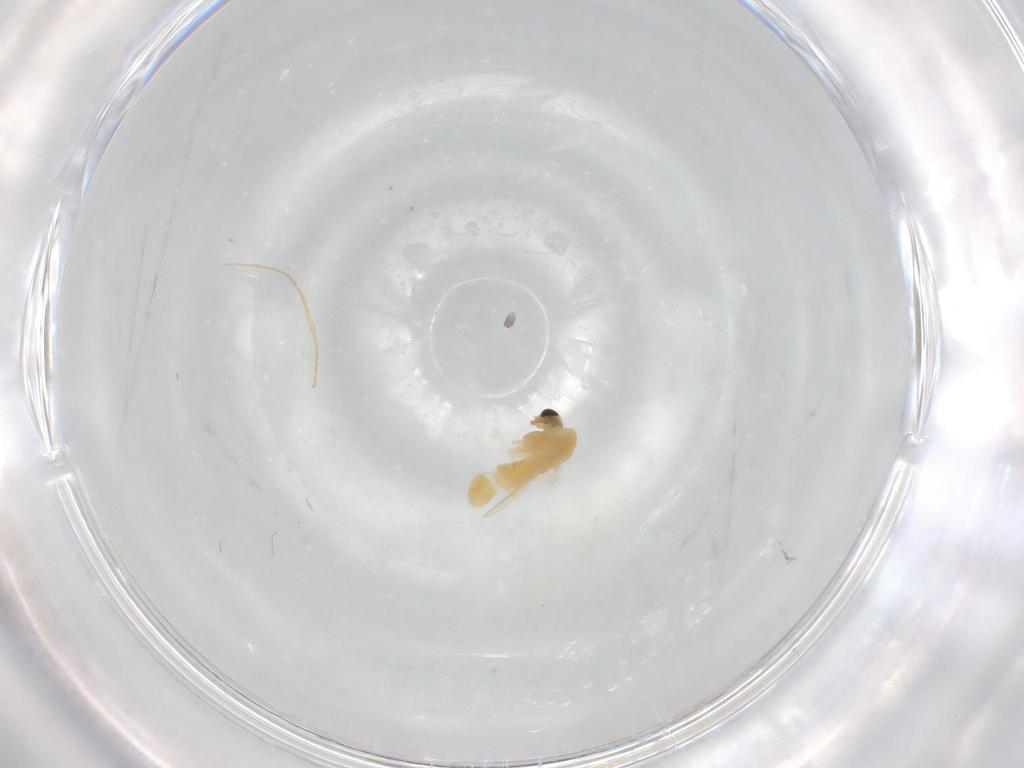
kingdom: Animalia
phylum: Arthropoda
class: Insecta
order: Diptera
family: Chironomidae
